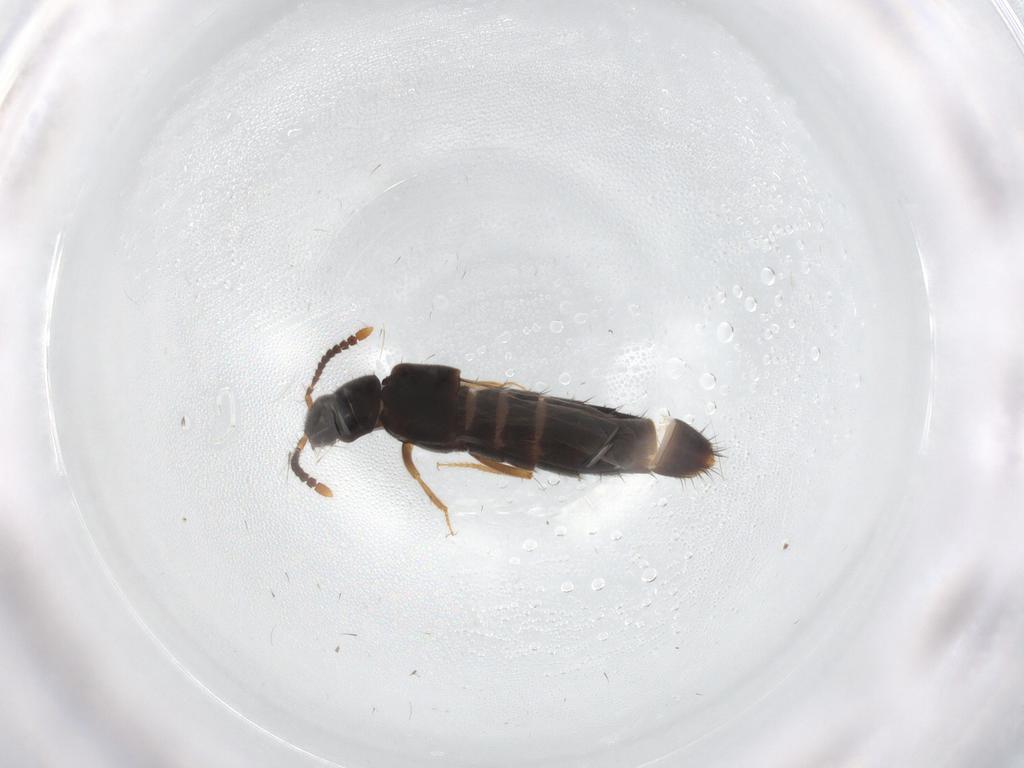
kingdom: Animalia
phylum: Arthropoda
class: Insecta
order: Coleoptera
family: Staphylinidae
